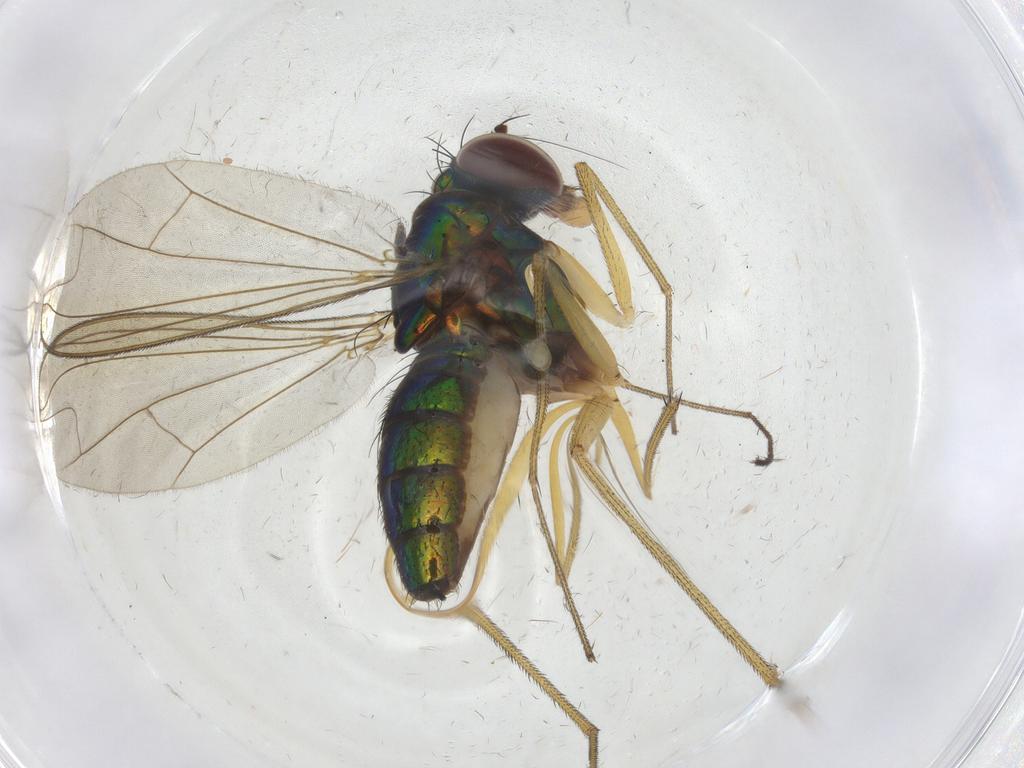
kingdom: Animalia
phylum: Arthropoda
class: Insecta
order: Diptera
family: Dolichopodidae
